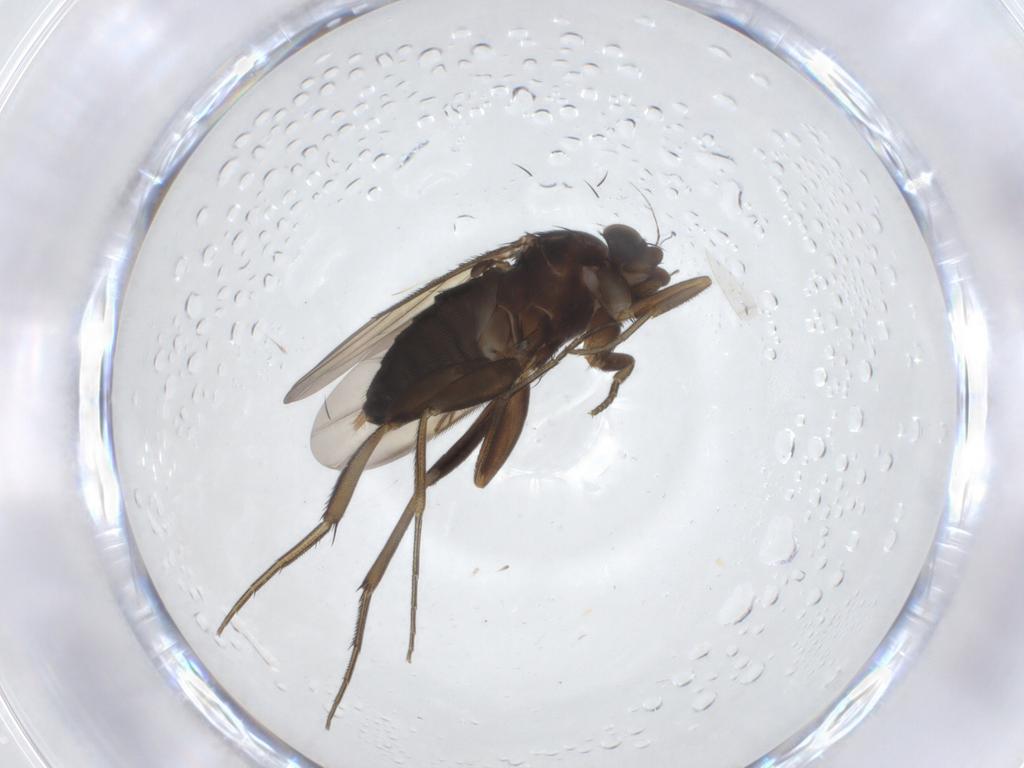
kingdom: Animalia
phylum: Arthropoda
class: Insecta
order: Diptera
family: Phoridae
